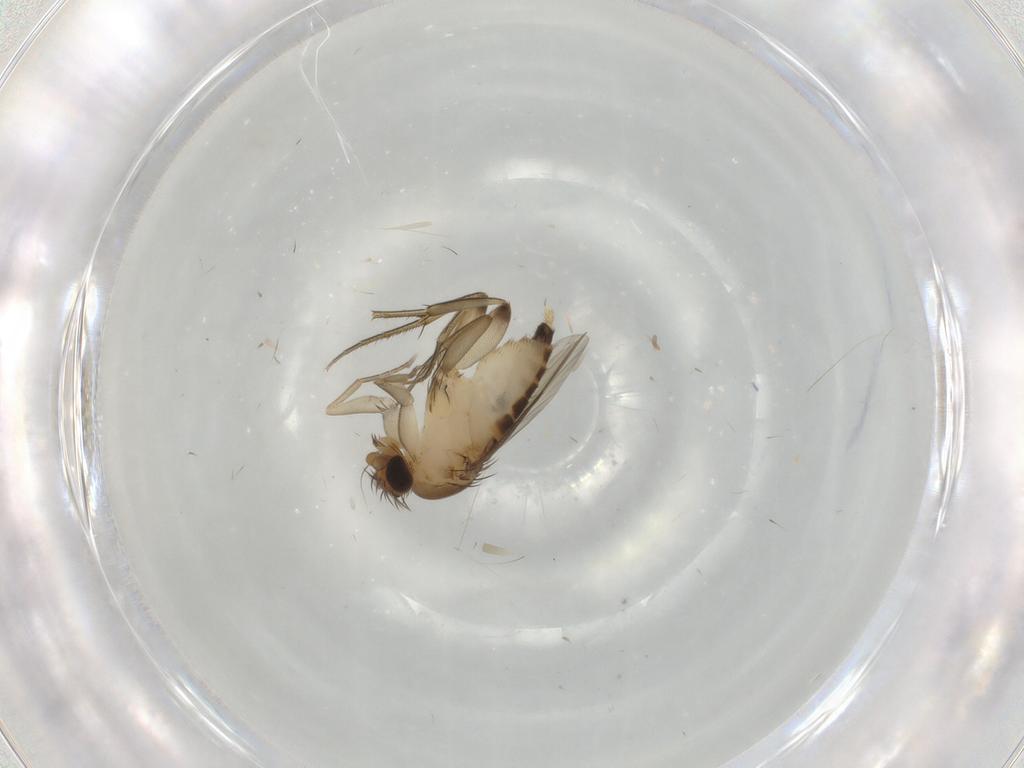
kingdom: Animalia
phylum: Arthropoda
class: Insecta
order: Diptera
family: Phoridae
